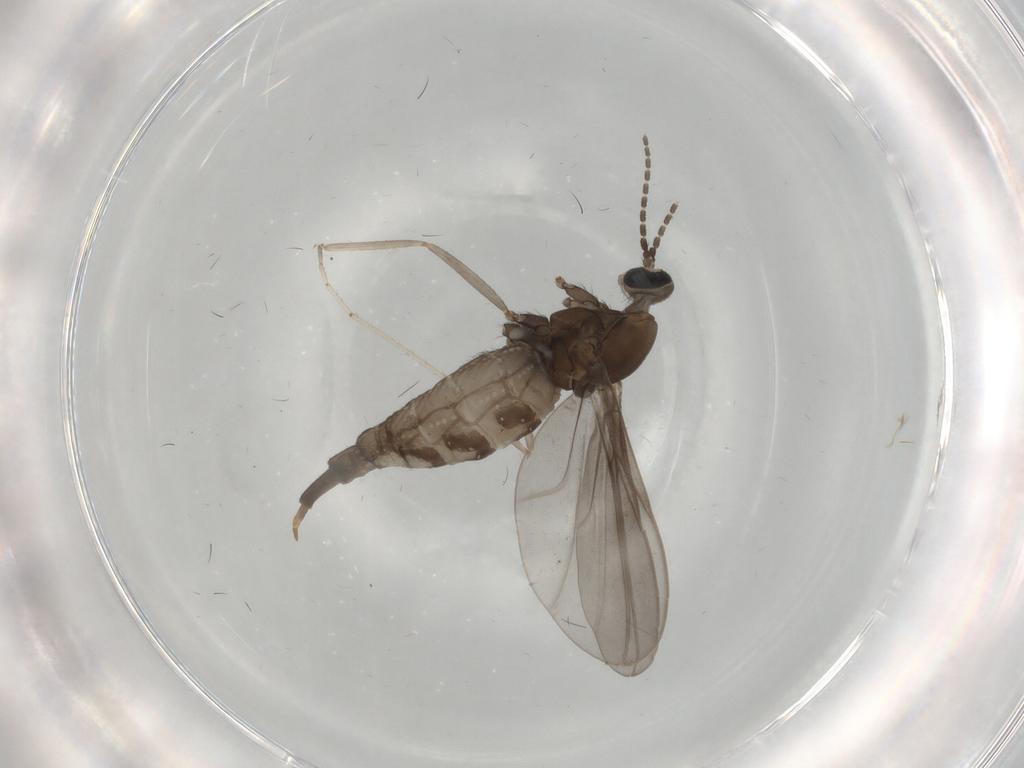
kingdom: Animalia
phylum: Arthropoda
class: Insecta
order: Diptera
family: Cecidomyiidae
